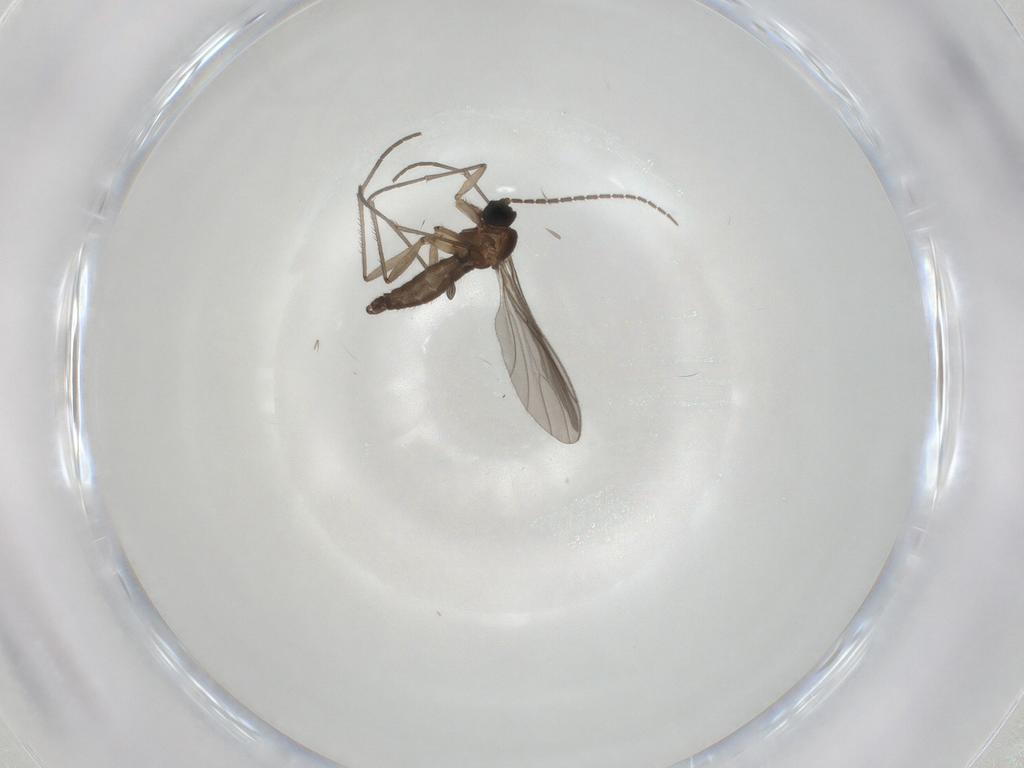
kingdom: Animalia
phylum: Arthropoda
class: Insecta
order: Diptera
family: Sciaridae
